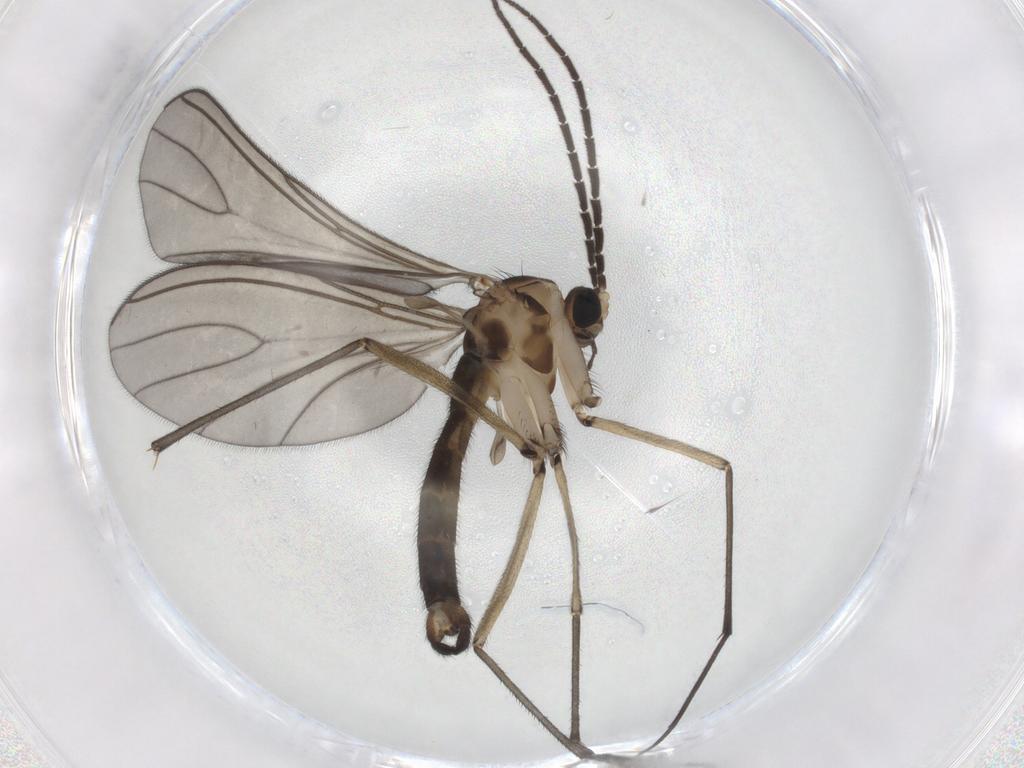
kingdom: Animalia
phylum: Arthropoda
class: Insecta
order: Diptera
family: Sciaridae
